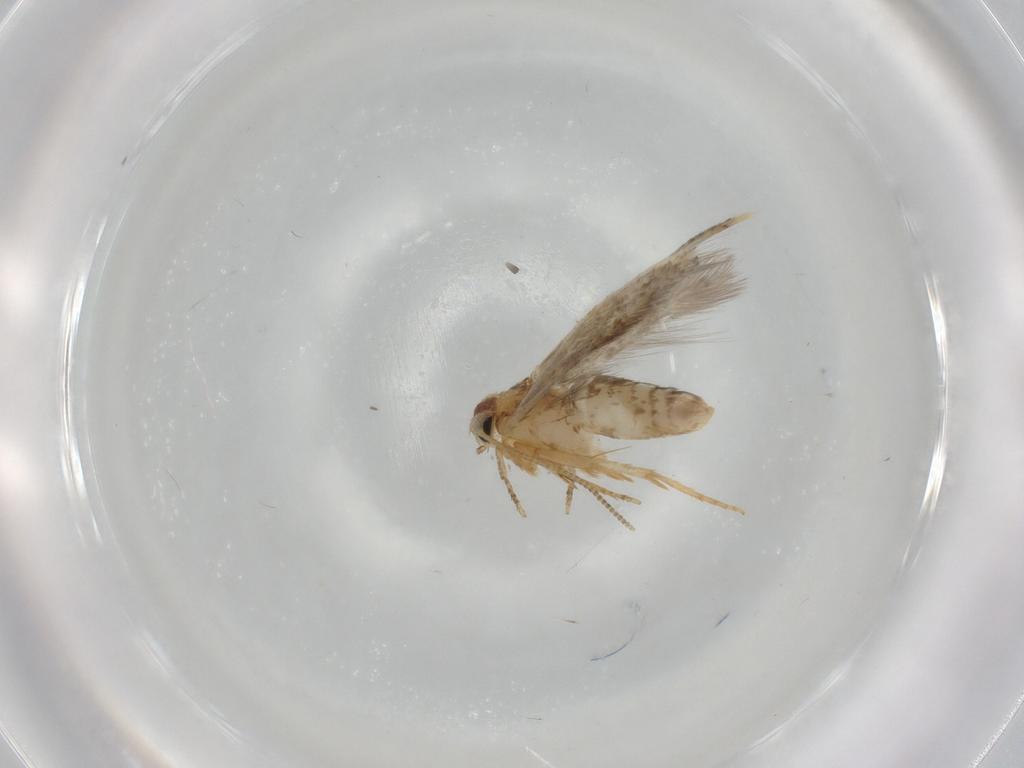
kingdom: Animalia
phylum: Arthropoda
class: Insecta
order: Lepidoptera
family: Nepticulidae
